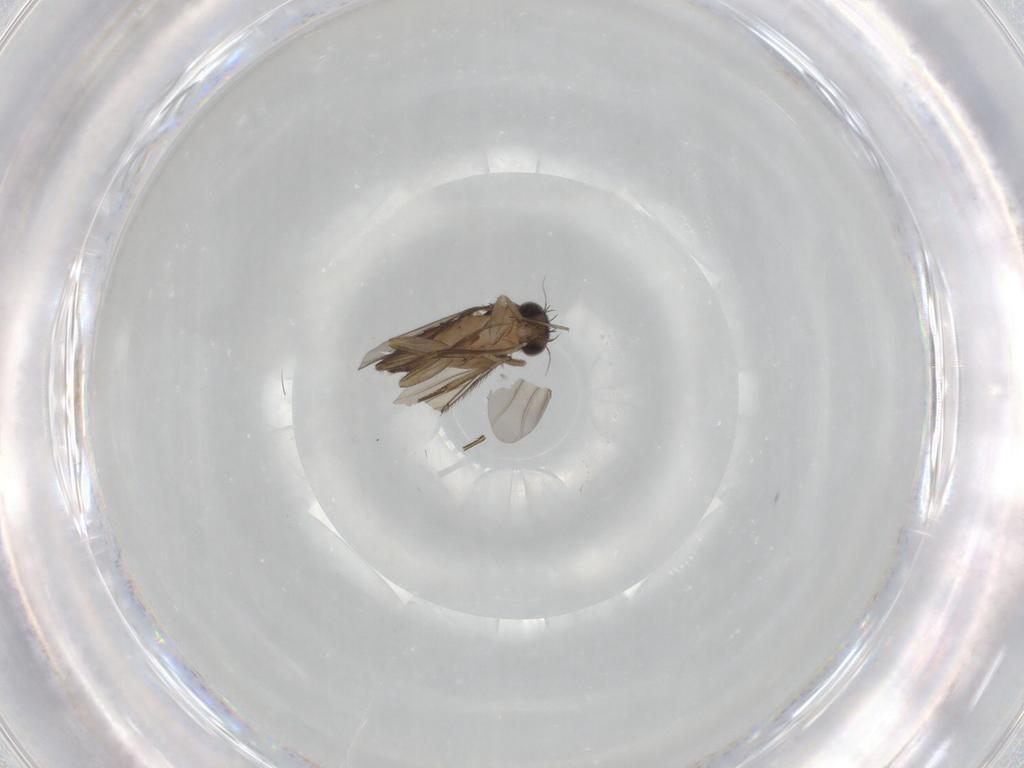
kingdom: Animalia
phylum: Arthropoda
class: Insecta
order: Diptera
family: Phoridae
